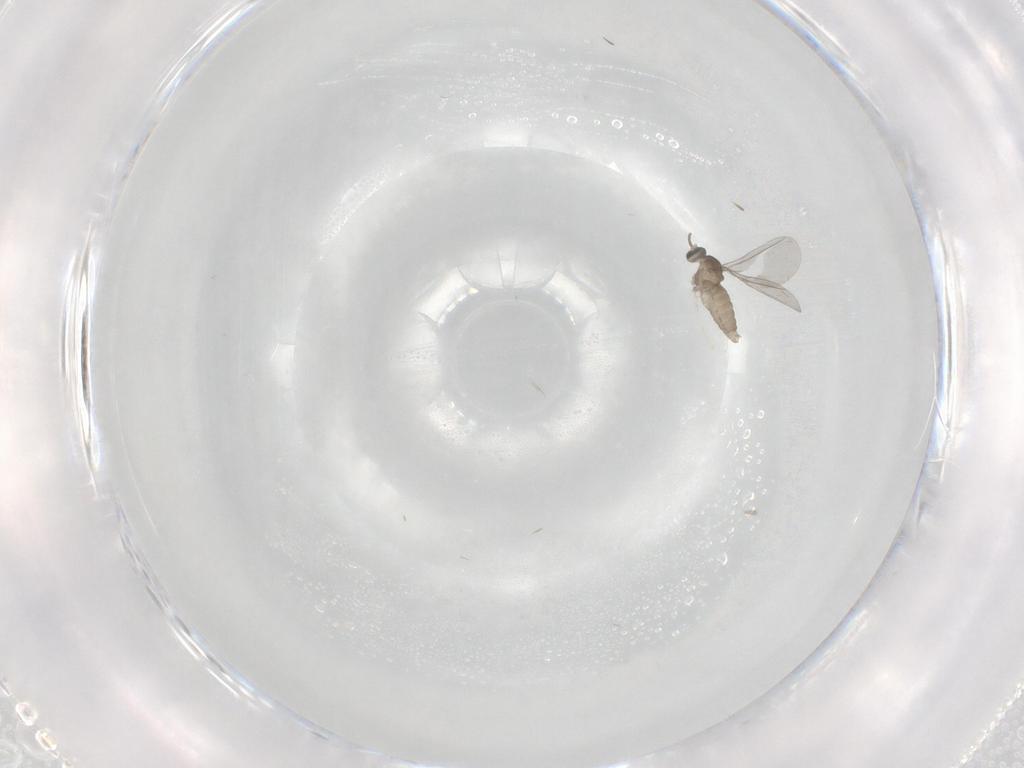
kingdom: Animalia
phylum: Arthropoda
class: Insecta
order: Diptera
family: Cecidomyiidae
